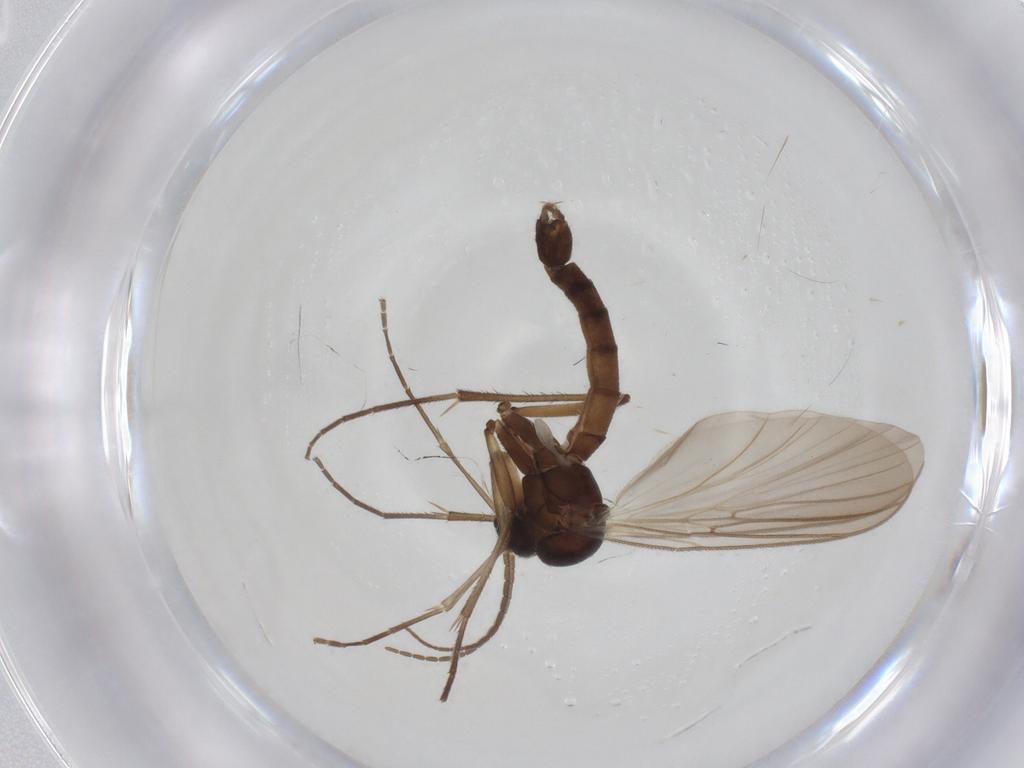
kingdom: Animalia
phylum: Arthropoda
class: Insecta
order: Diptera
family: Mycetophilidae
